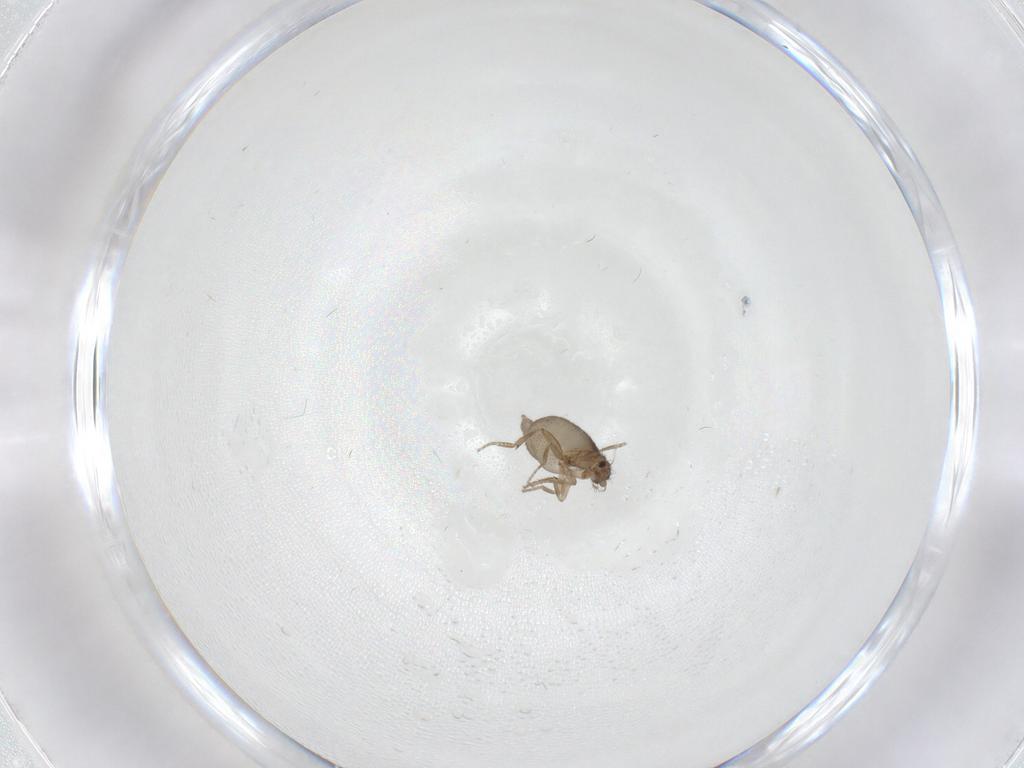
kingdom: Animalia
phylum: Arthropoda
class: Insecta
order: Diptera
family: Phoridae
